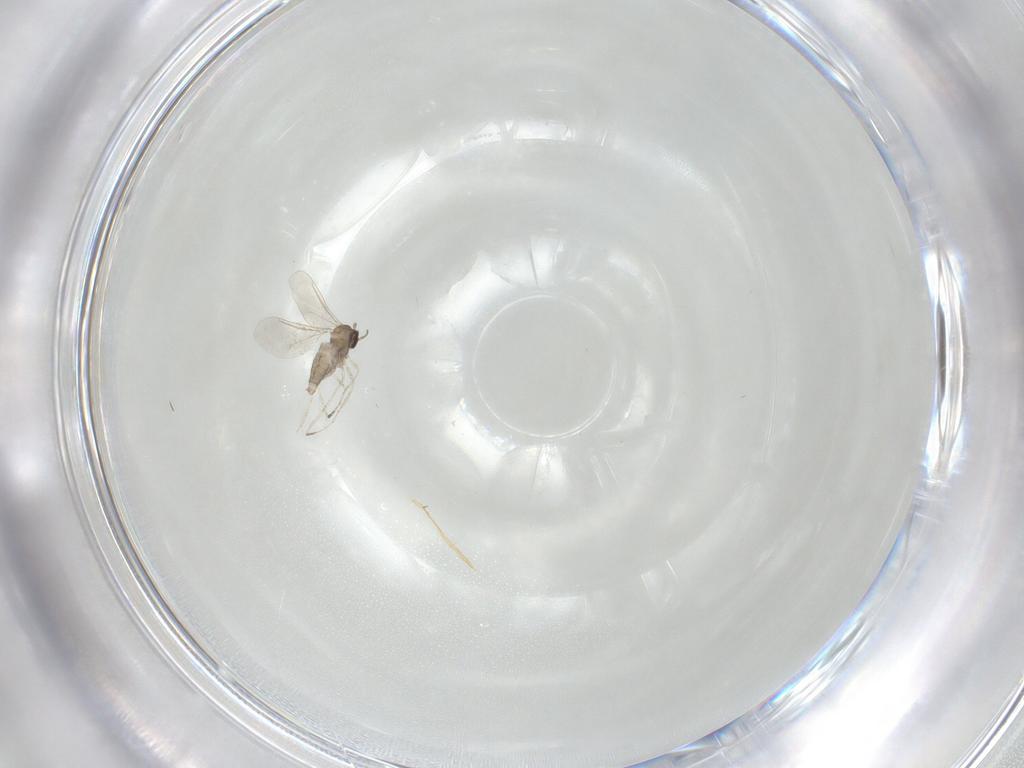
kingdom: Animalia
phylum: Arthropoda
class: Insecta
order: Diptera
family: Cecidomyiidae
